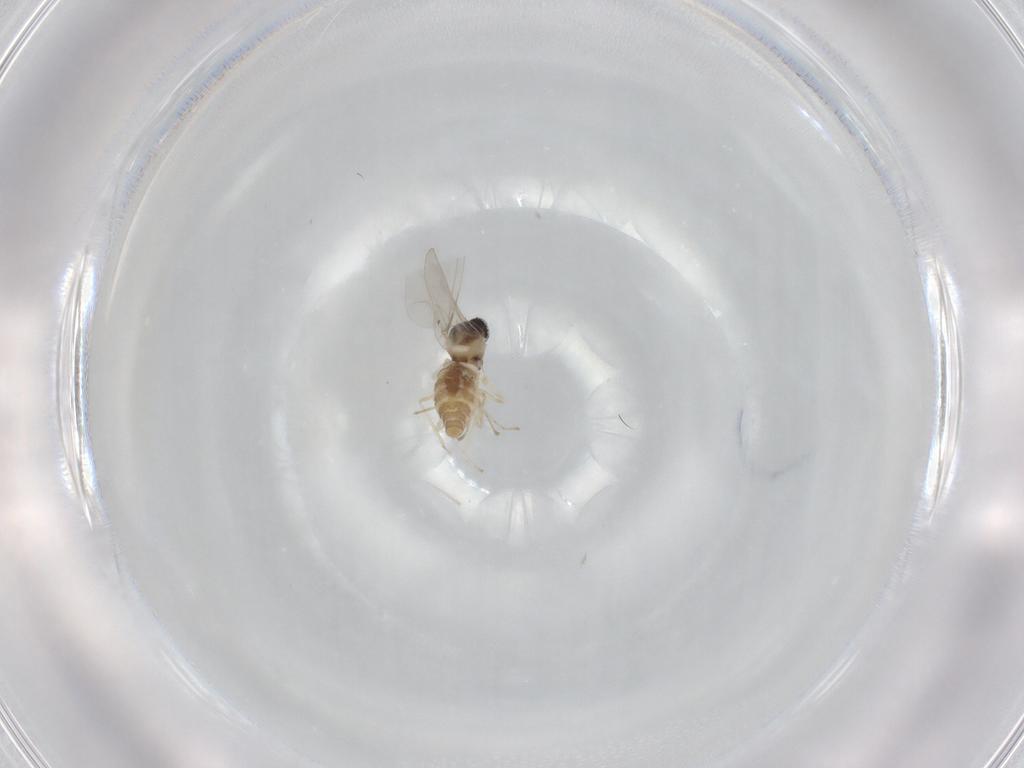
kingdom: Animalia
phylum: Arthropoda
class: Insecta
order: Diptera
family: Cecidomyiidae
